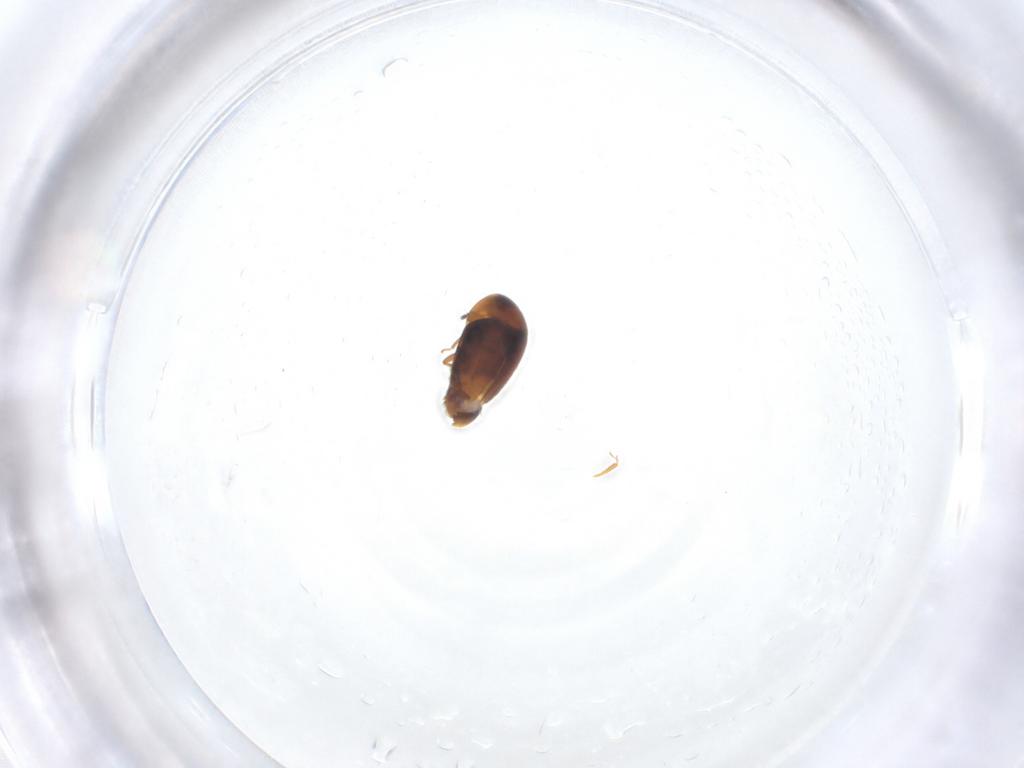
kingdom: Animalia
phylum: Arthropoda
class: Insecta
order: Coleoptera
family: Corylophidae
